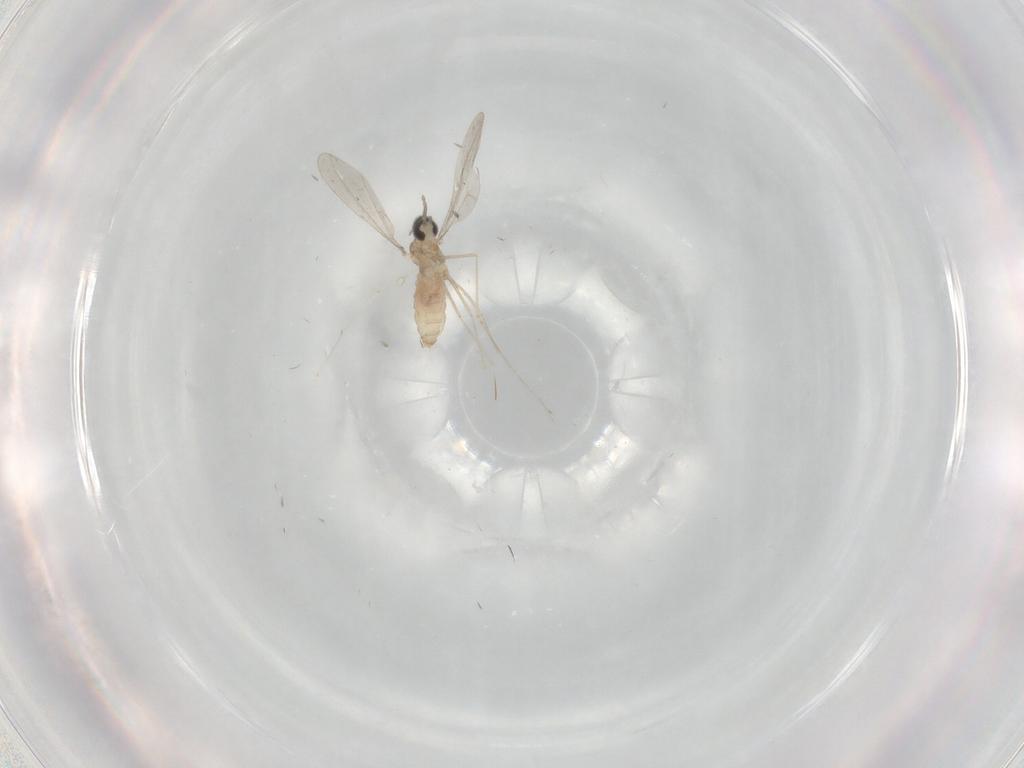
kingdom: Animalia
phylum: Arthropoda
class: Insecta
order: Diptera
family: Cecidomyiidae
